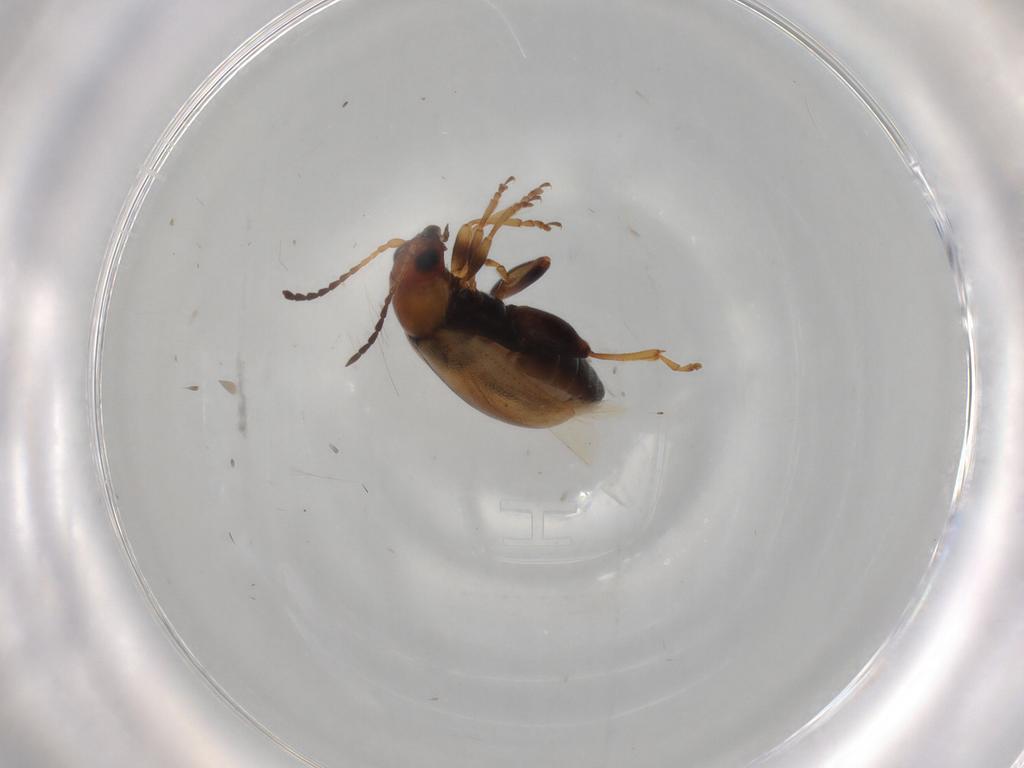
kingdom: Animalia
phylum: Arthropoda
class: Insecta
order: Coleoptera
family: Chrysomelidae
